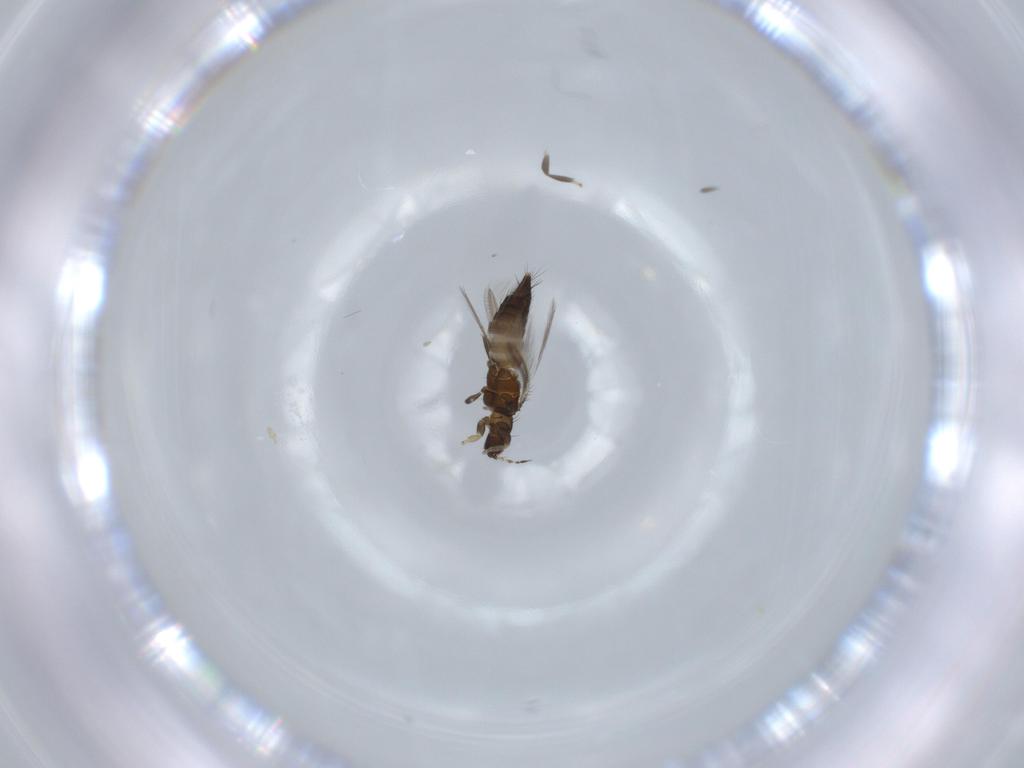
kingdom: Animalia
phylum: Arthropoda
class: Insecta
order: Thysanoptera
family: Thripidae
